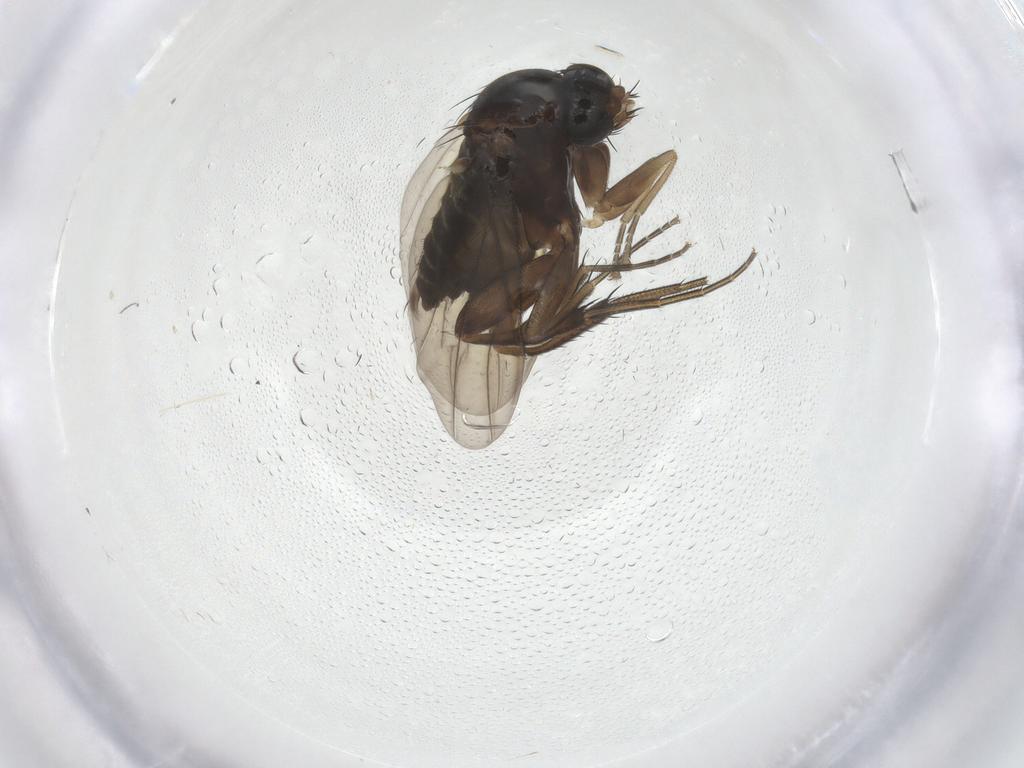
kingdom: Animalia
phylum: Arthropoda
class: Insecta
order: Diptera
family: Phoridae
